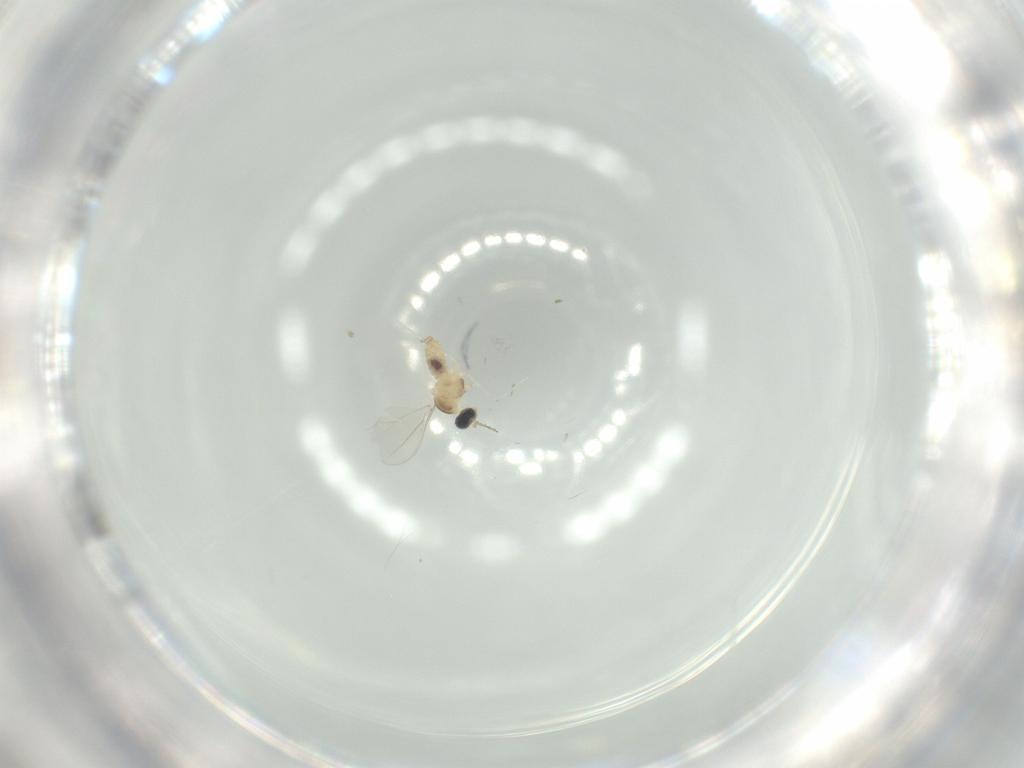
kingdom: Animalia
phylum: Arthropoda
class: Insecta
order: Diptera
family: Cecidomyiidae
